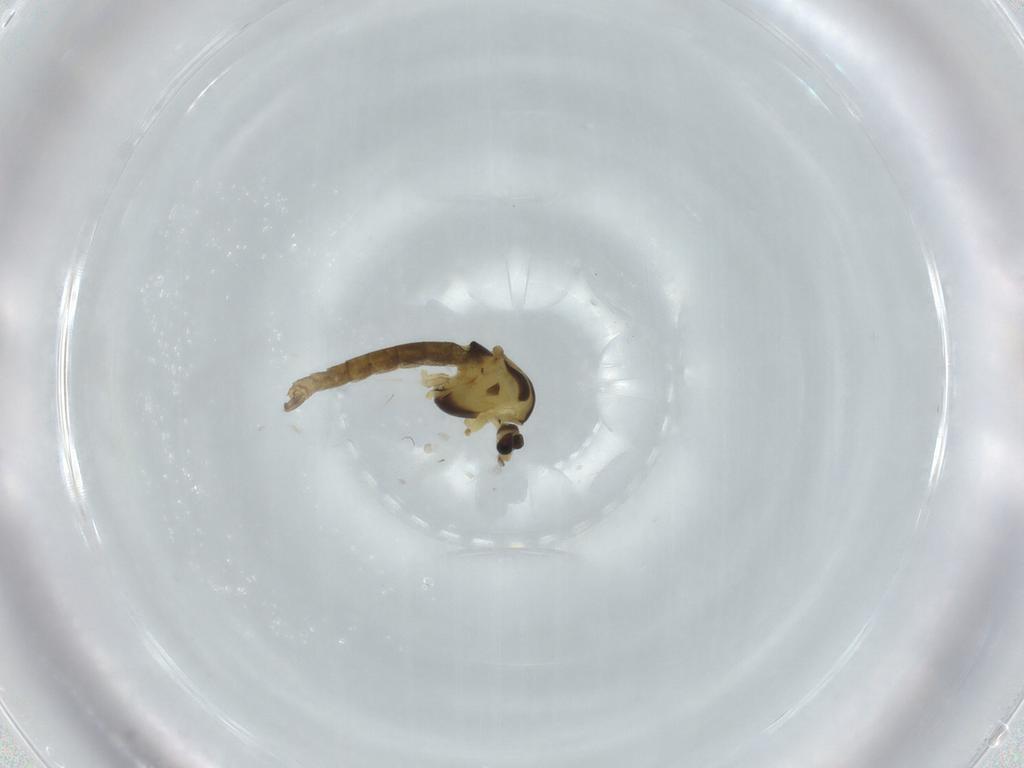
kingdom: Animalia
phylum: Arthropoda
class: Insecta
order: Diptera
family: Chironomidae
